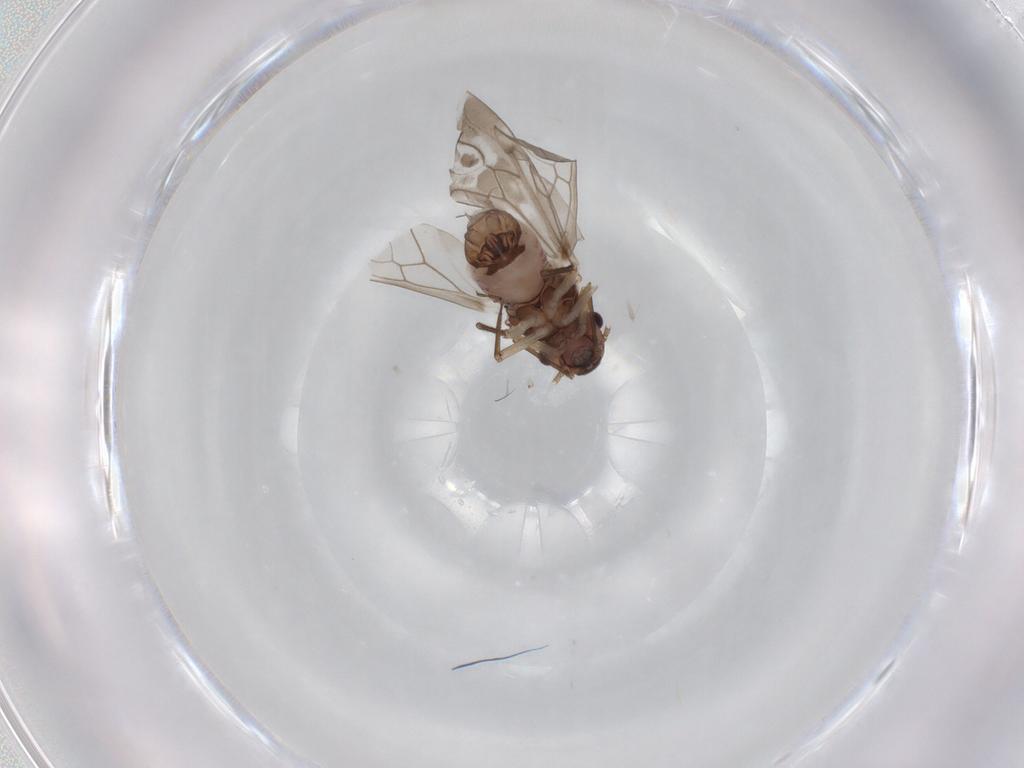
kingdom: Animalia
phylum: Arthropoda
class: Insecta
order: Psocodea
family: Peripsocidae
